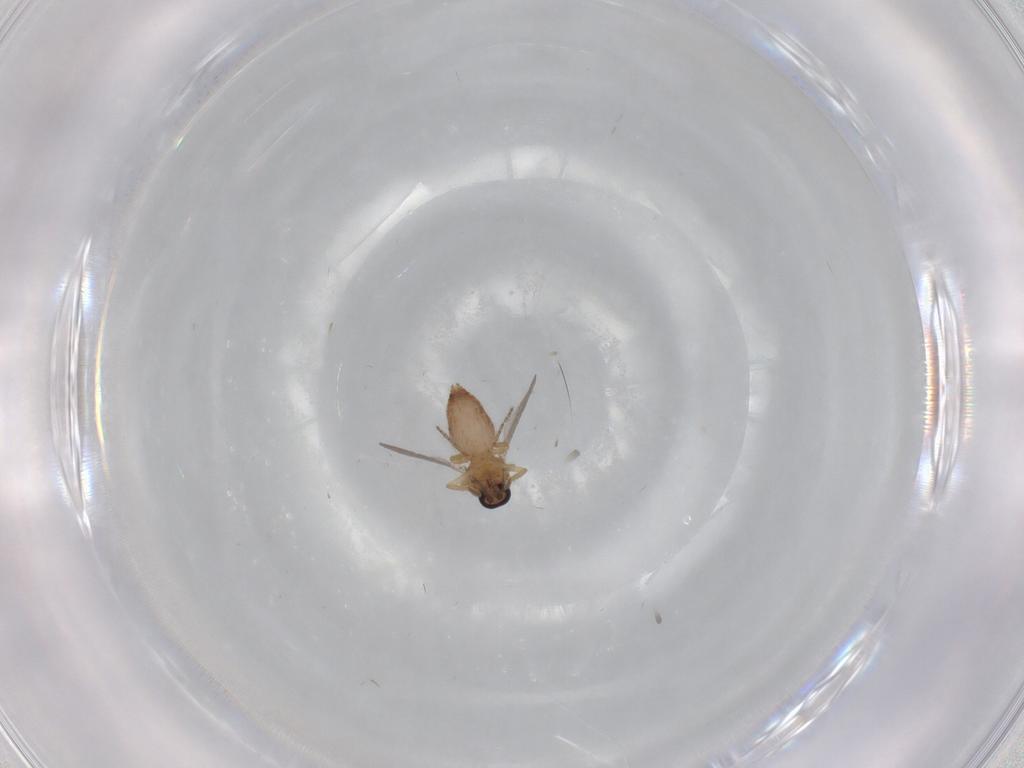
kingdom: Animalia
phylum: Arthropoda
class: Insecta
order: Diptera
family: Ceratopogonidae
